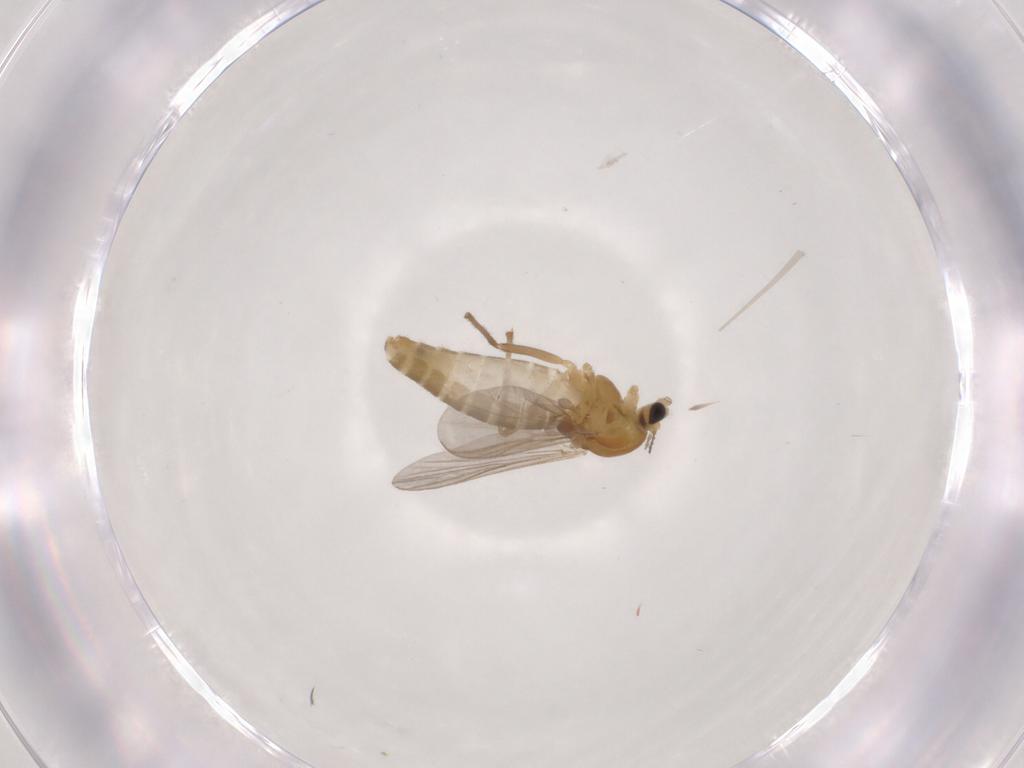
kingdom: Animalia
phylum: Arthropoda
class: Insecta
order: Diptera
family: Chironomidae
